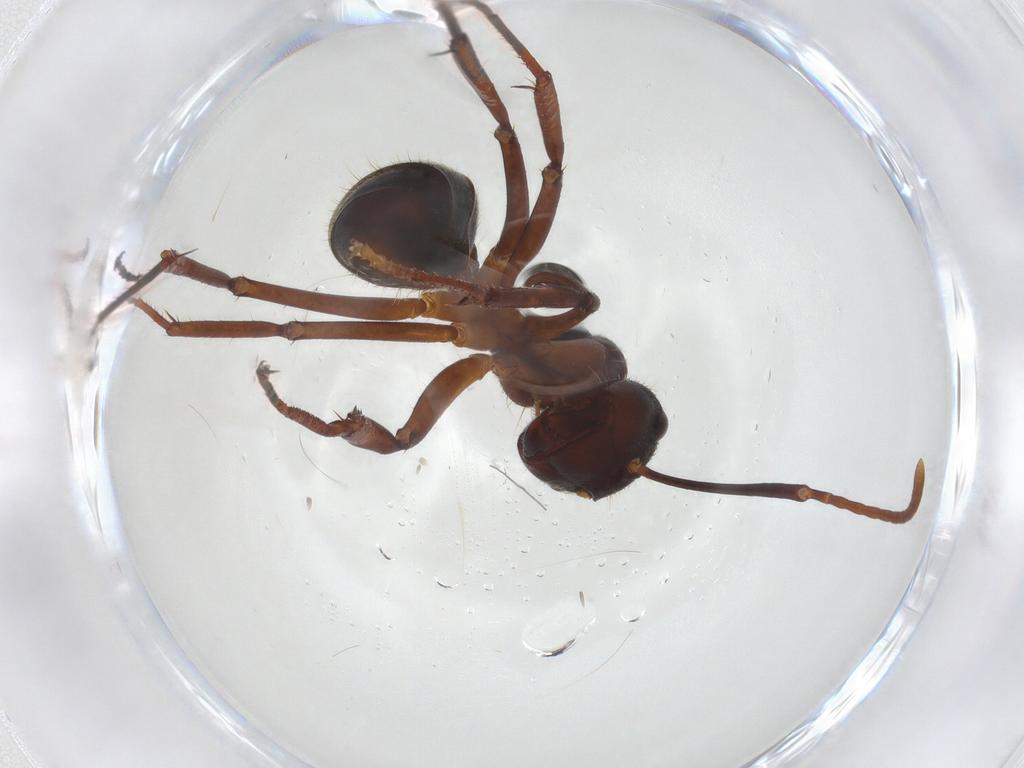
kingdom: Animalia
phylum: Arthropoda
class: Insecta
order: Hymenoptera
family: Formicidae
